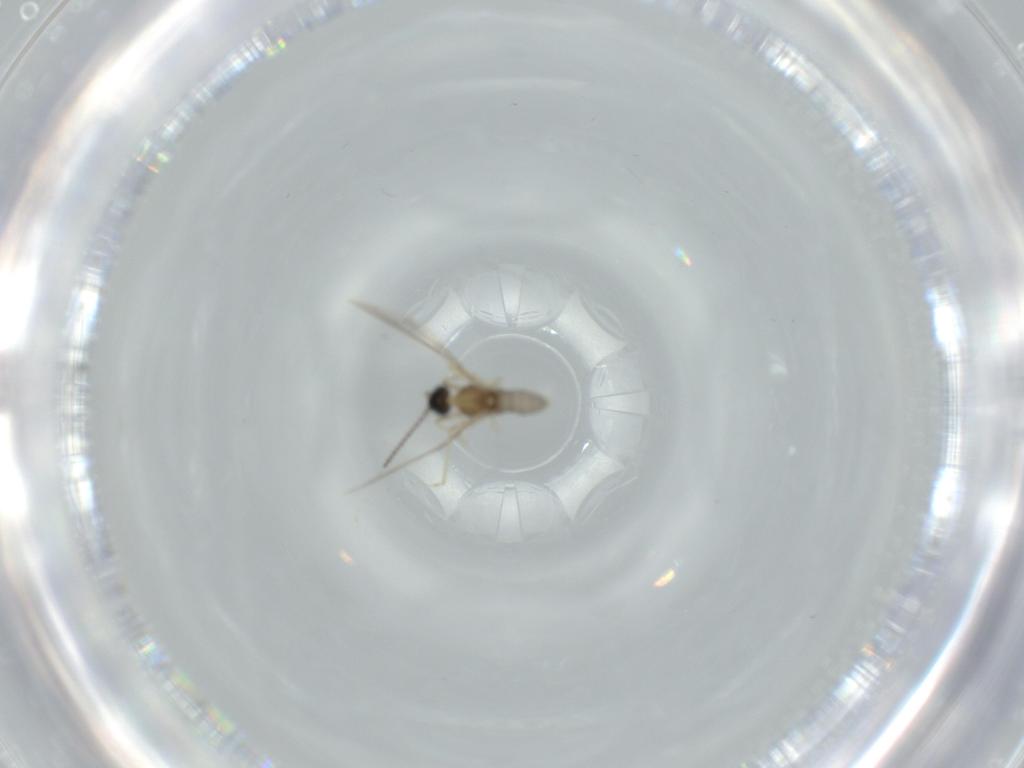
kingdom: Animalia
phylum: Arthropoda
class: Insecta
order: Diptera
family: Cecidomyiidae
